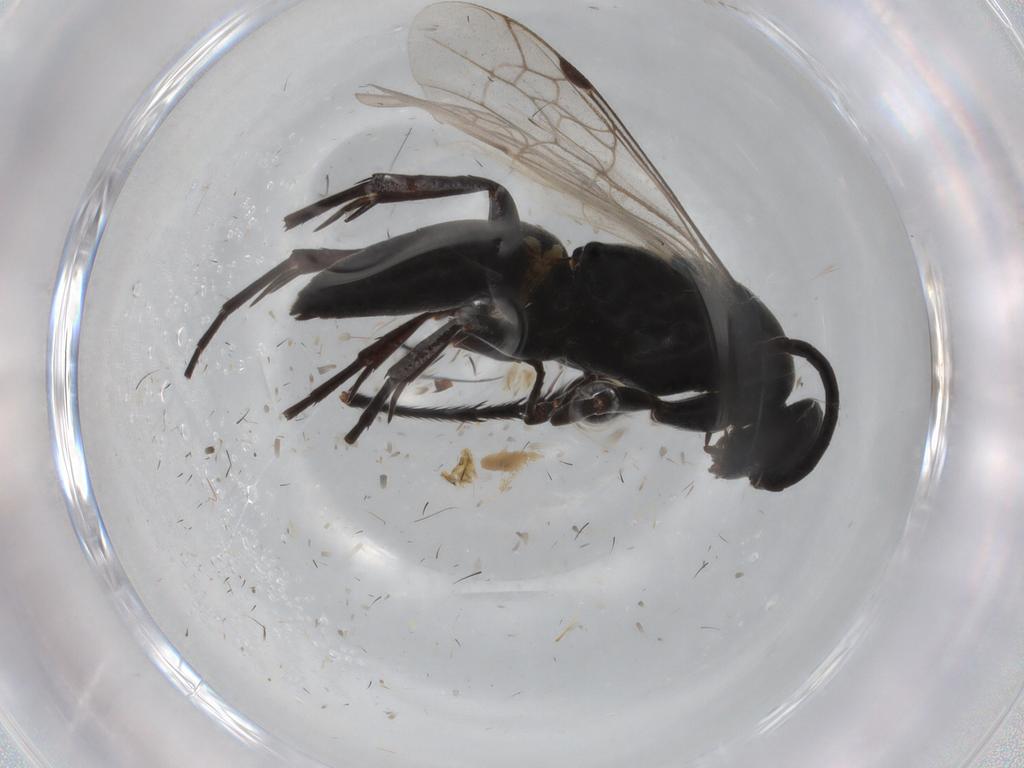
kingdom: Animalia
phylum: Arthropoda
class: Insecta
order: Hymenoptera
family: Pompilidae
